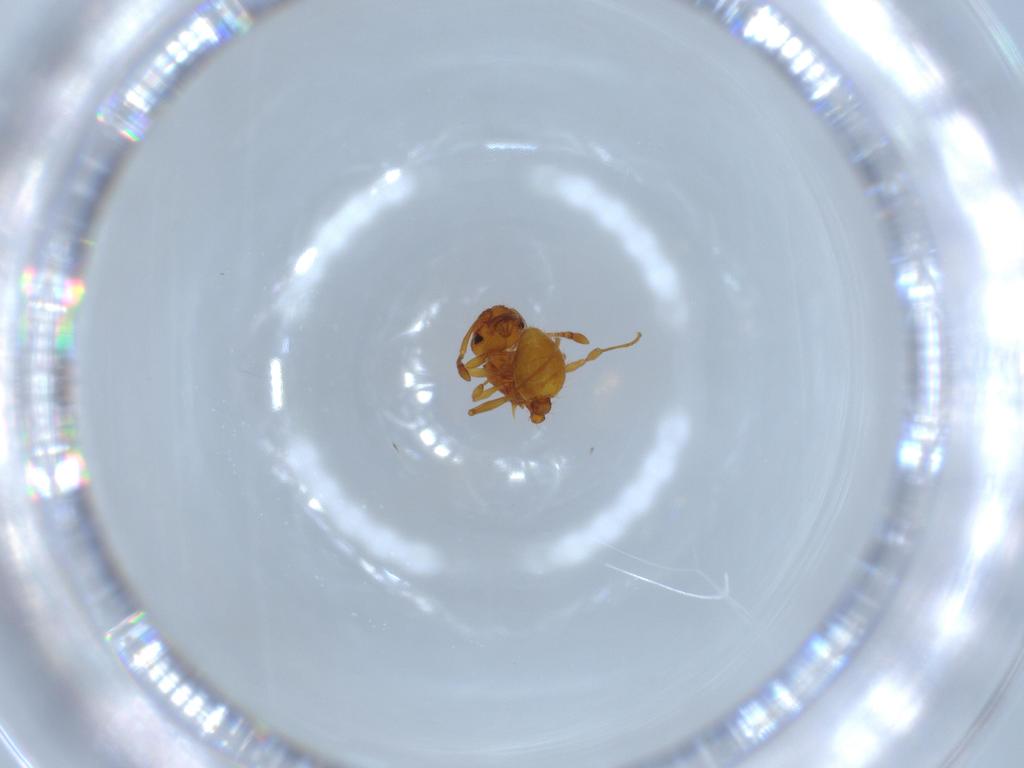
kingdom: Animalia
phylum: Arthropoda
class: Insecta
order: Hymenoptera
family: Formicidae
